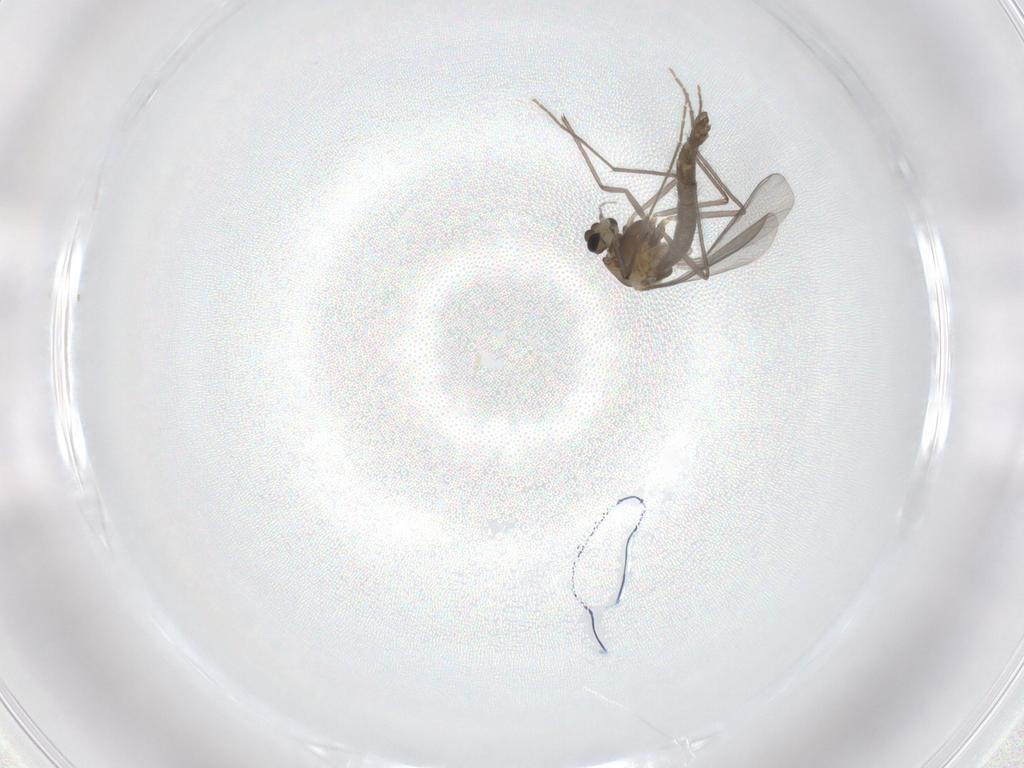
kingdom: Animalia
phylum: Arthropoda
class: Insecta
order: Diptera
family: Chironomidae
